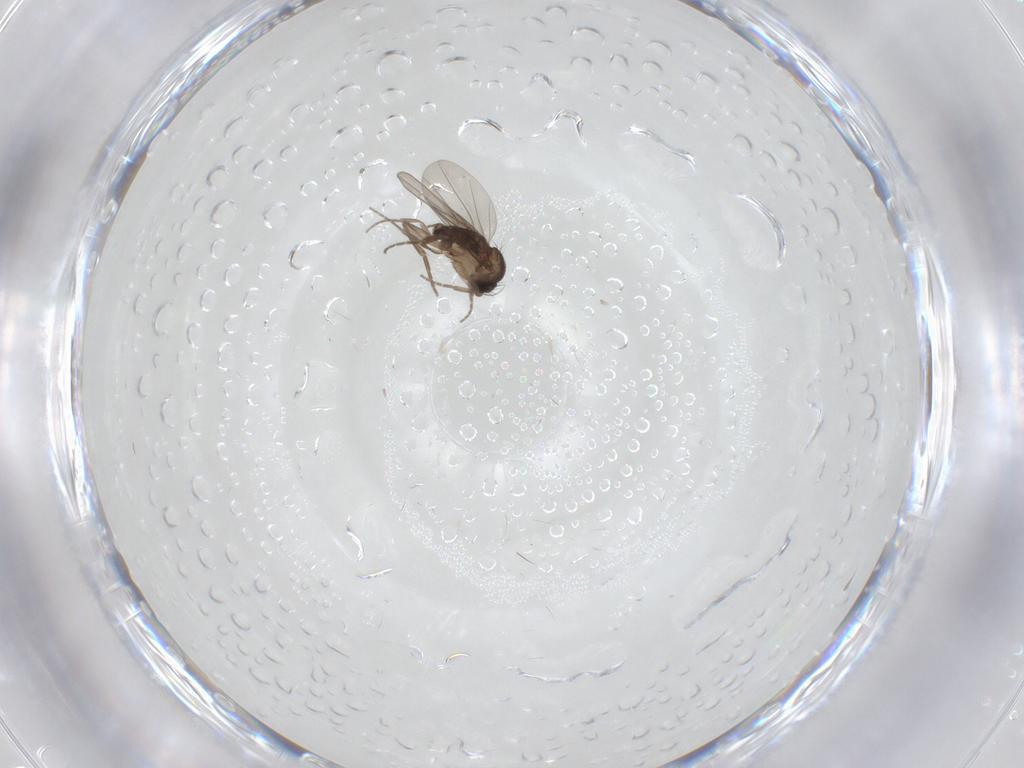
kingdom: Animalia
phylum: Arthropoda
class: Insecta
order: Diptera
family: Phoridae
